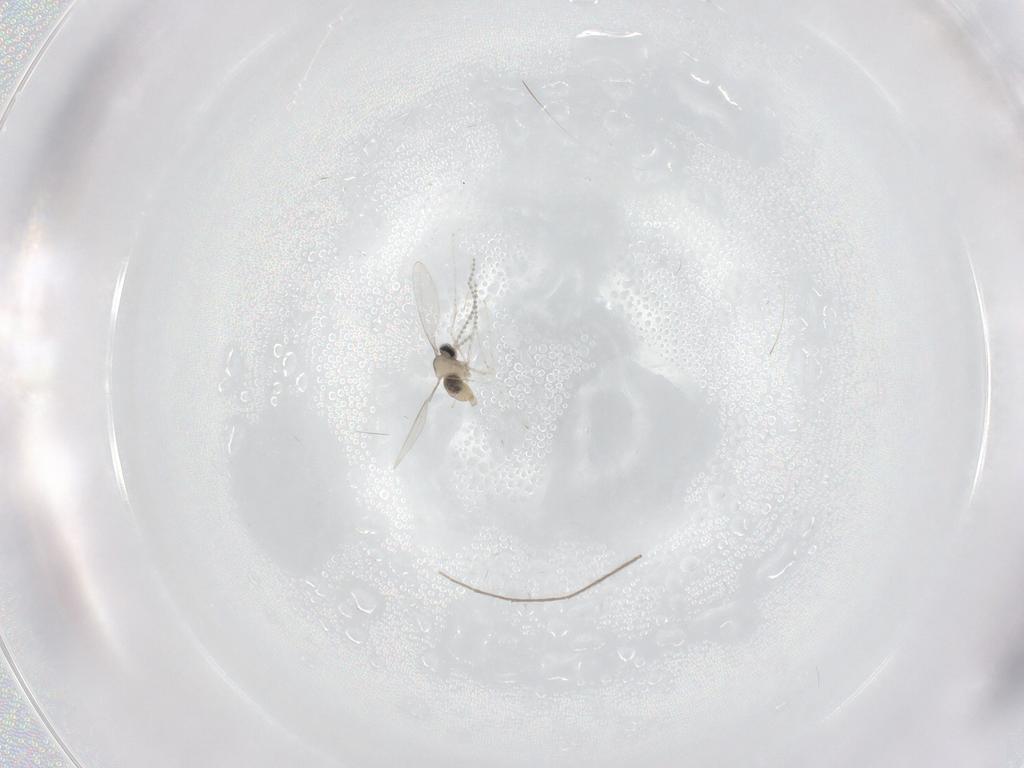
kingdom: Animalia
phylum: Arthropoda
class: Insecta
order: Diptera
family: Cecidomyiidae
